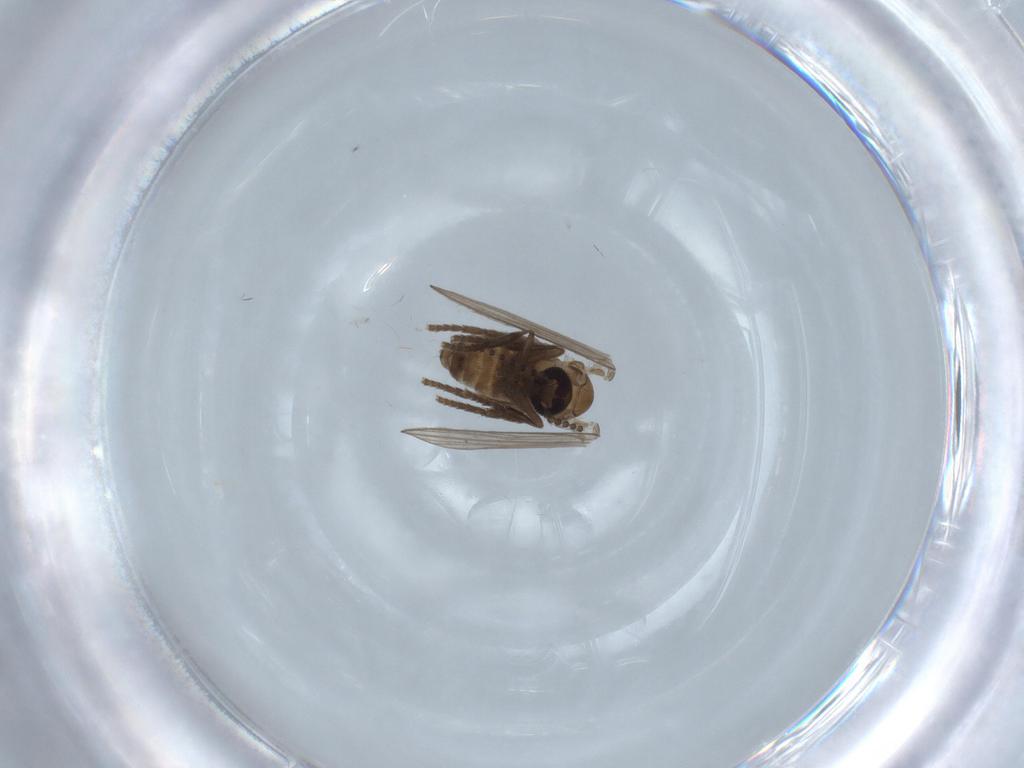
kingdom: Animalia
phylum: Arthropoda
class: Insecta
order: Diptera
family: Psychodidae
